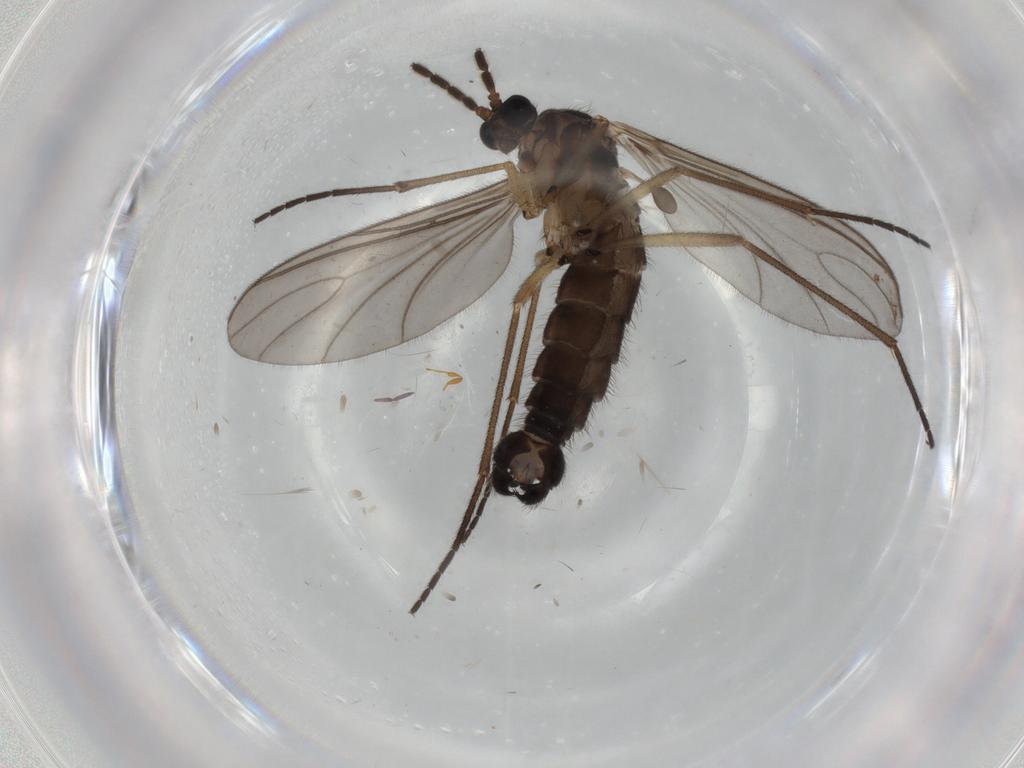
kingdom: Animalia
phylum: Arthropoda
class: Insecta
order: Diptera
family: Sciaridae
